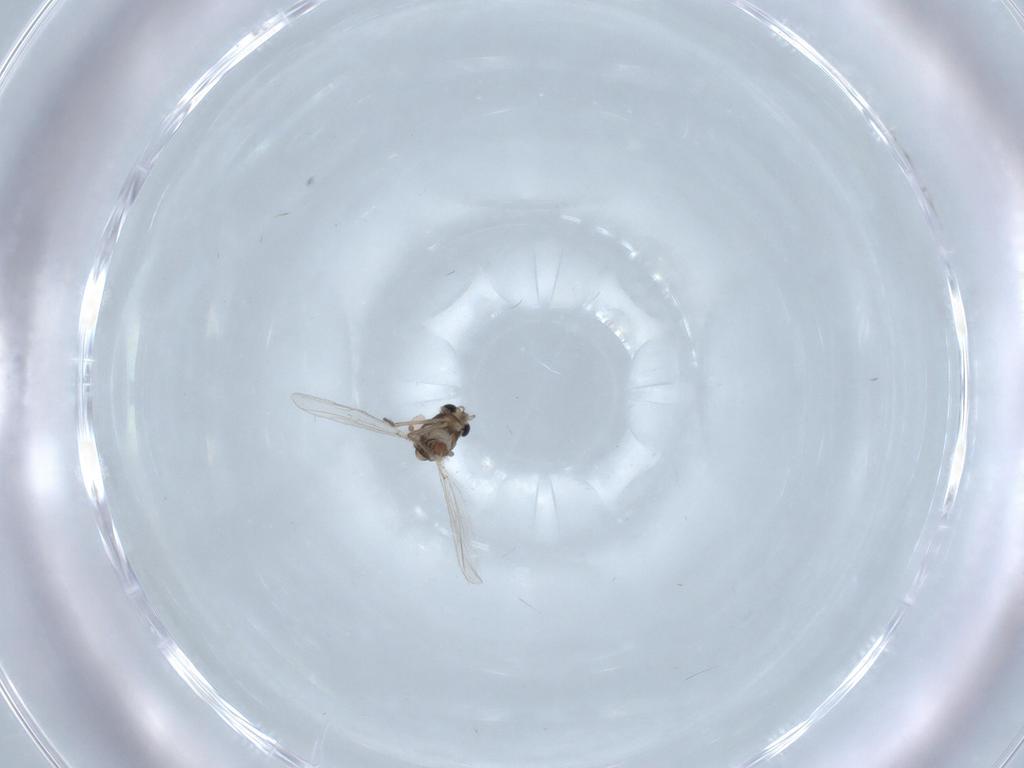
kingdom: Animalia
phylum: Arthropoda
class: Insecta
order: Diptera
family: Chironomidae
